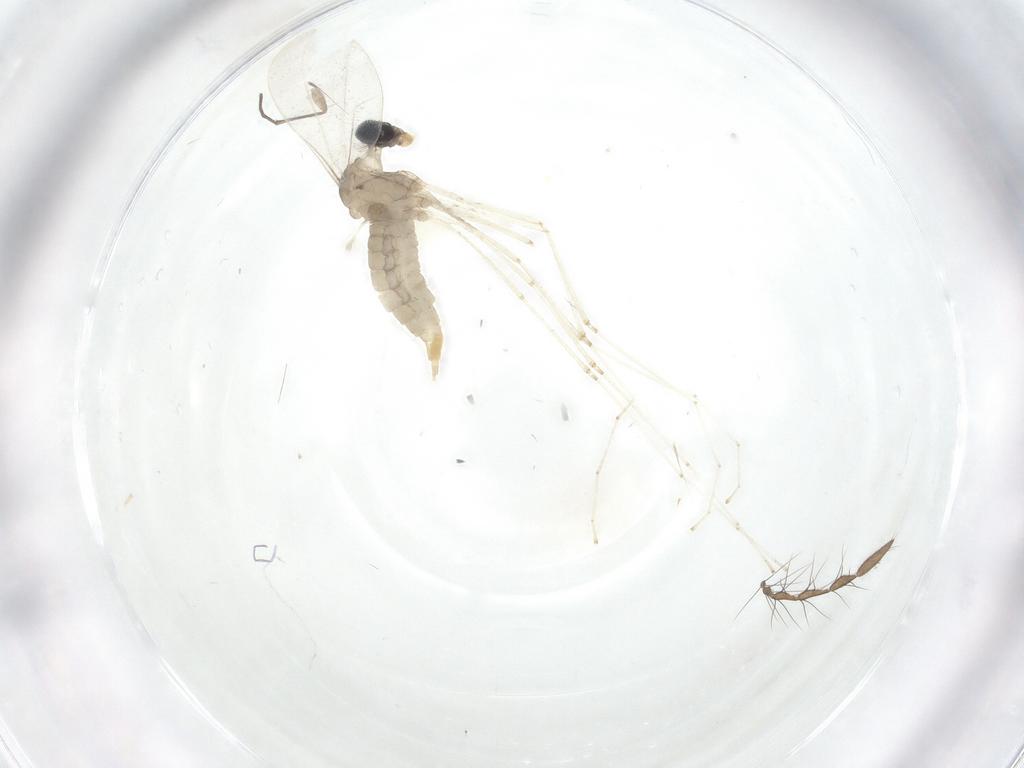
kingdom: Animalia
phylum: Arthropoda
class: Insecta
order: Diptera
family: Cecidomyiidae
